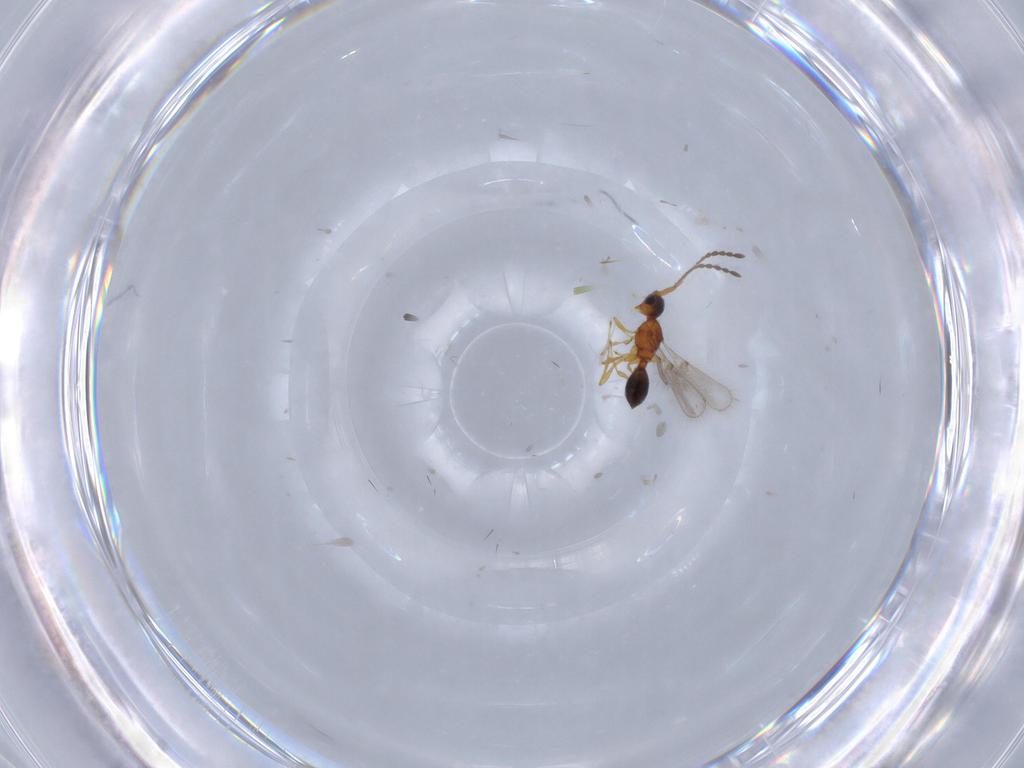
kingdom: Animalia
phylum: Arthropoda
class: Insecta
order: Hymenoptera
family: Diapriidae
